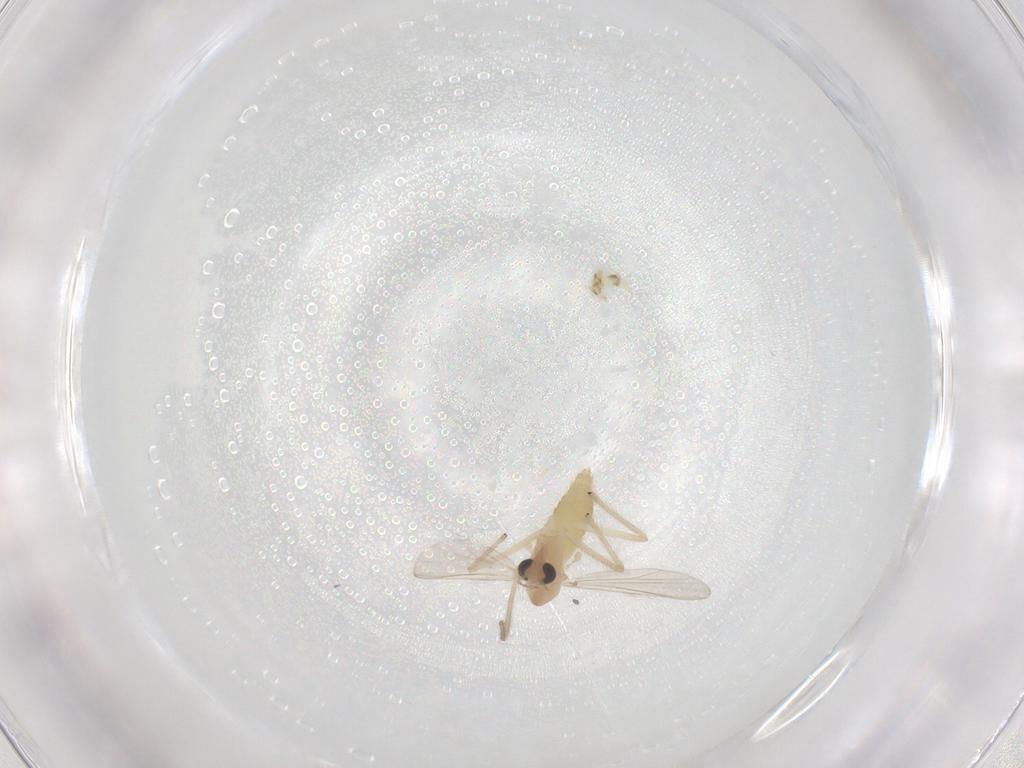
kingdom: Animalia
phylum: Arthropoda
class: Insecta
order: Diptera
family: Chironomidae
